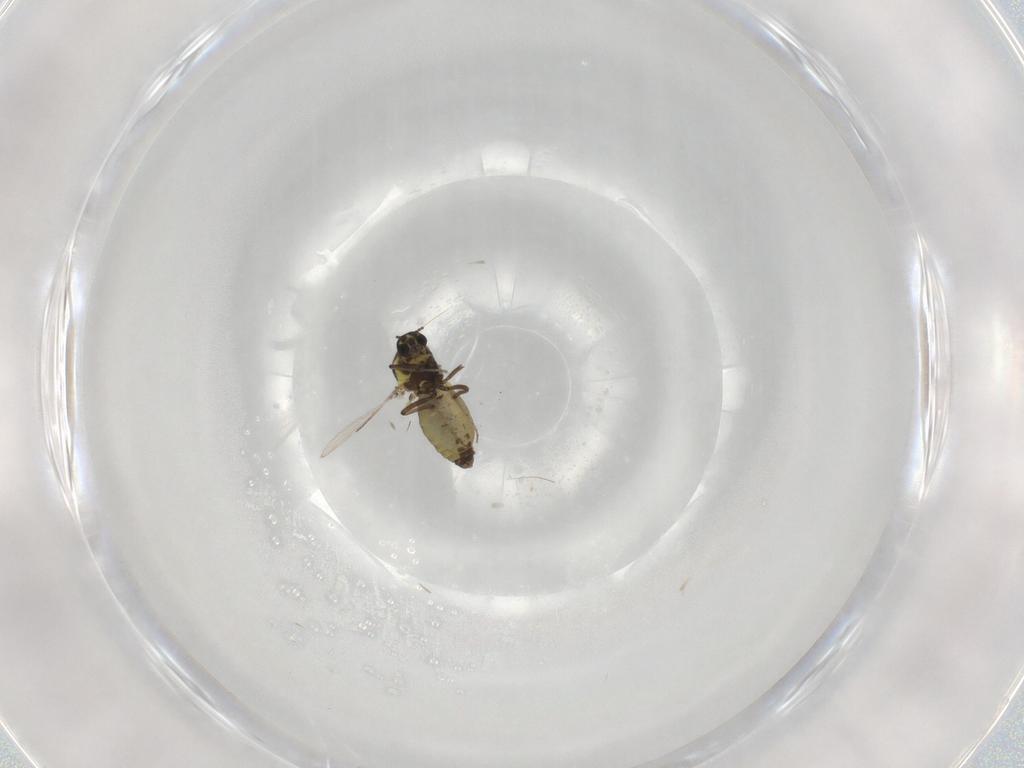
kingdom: Animalia
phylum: Arthropoda
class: Insecta
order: Diptera
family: Ceratopogonidae
